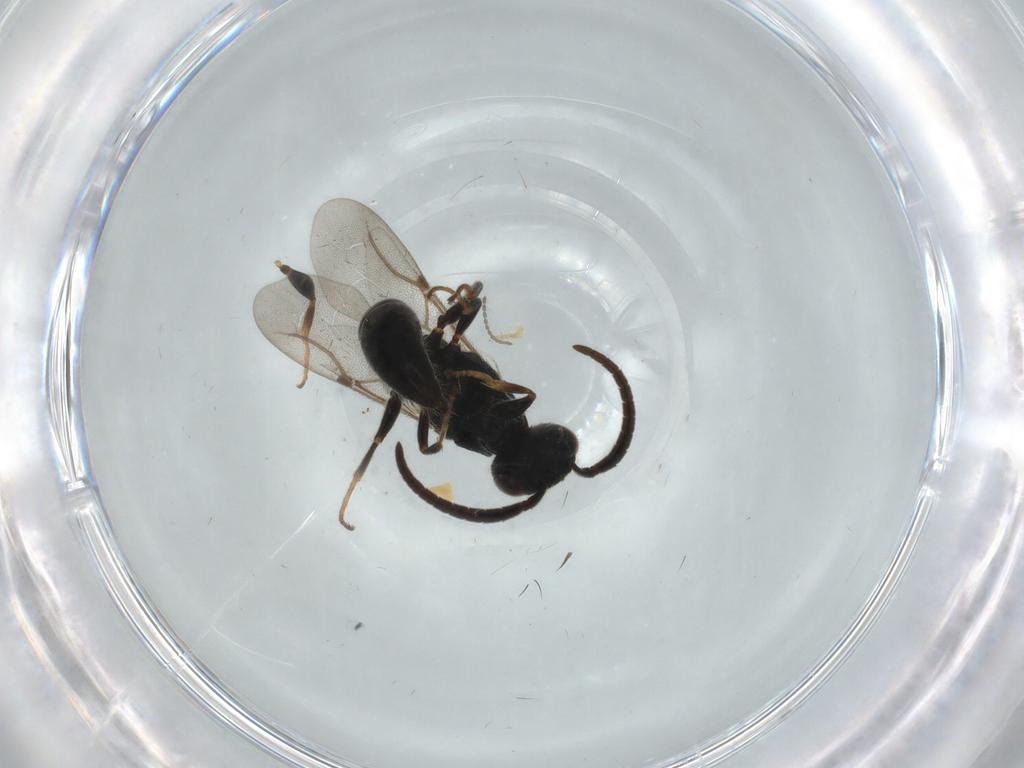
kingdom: Animalia
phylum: Arthropoda
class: Insecta
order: Hymenoptera
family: Bethylidae
